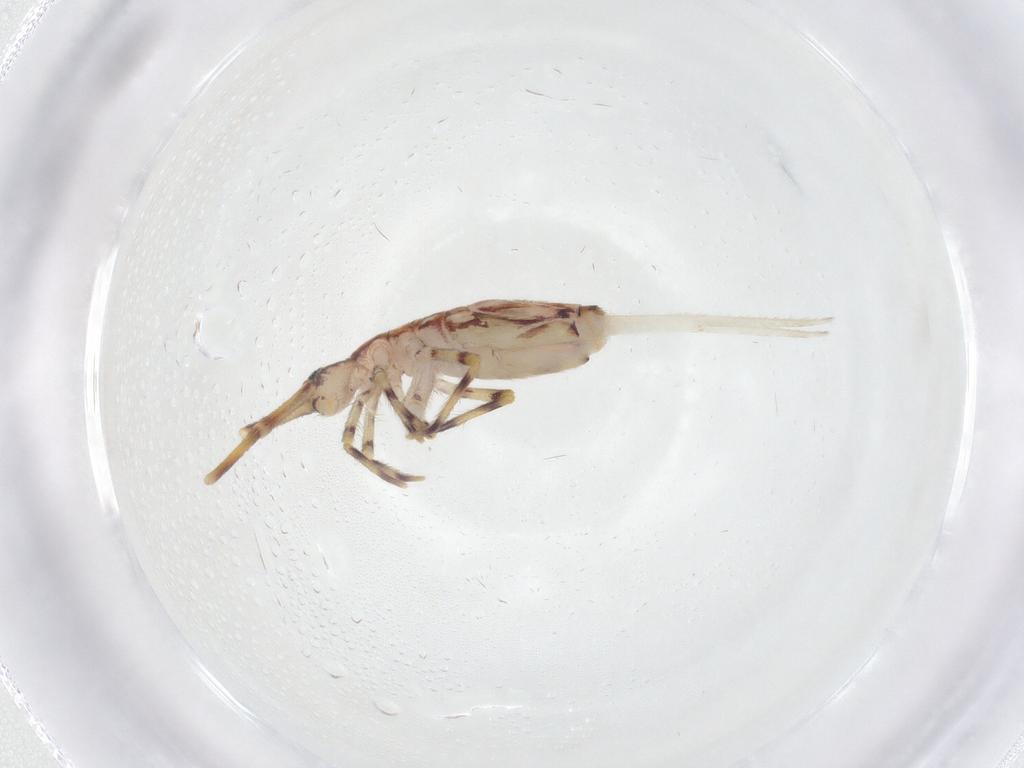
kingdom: Animalia
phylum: Arthropoda
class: Collembola
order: Entomobryomorpha
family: Entomobryidae
